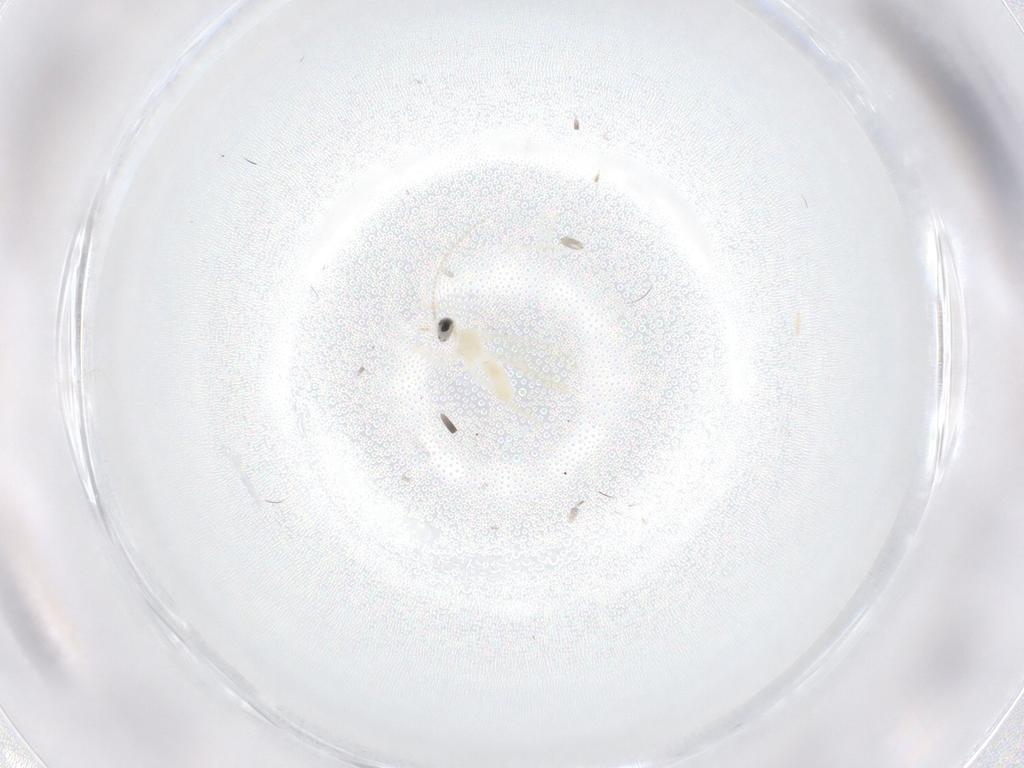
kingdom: Animalia
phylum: Arthropoda
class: Insecta
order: Diptera
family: Cecidomyiidae
